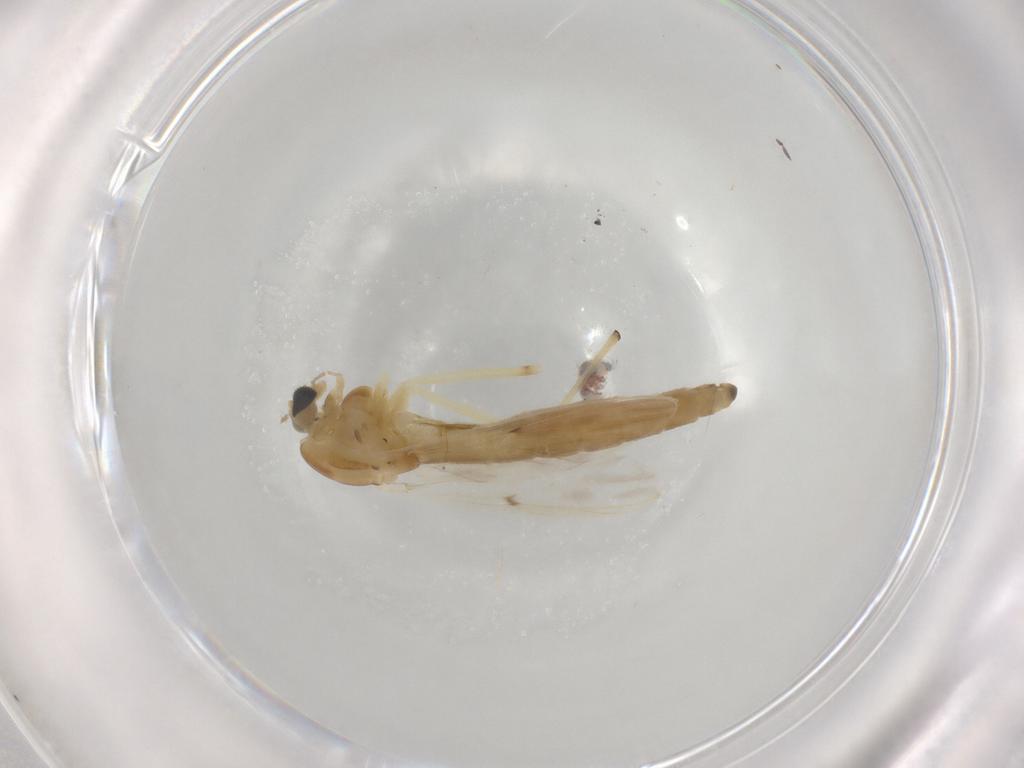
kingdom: Animalia
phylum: Arthropoda
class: Insecta
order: Diptera
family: Chironomidae
